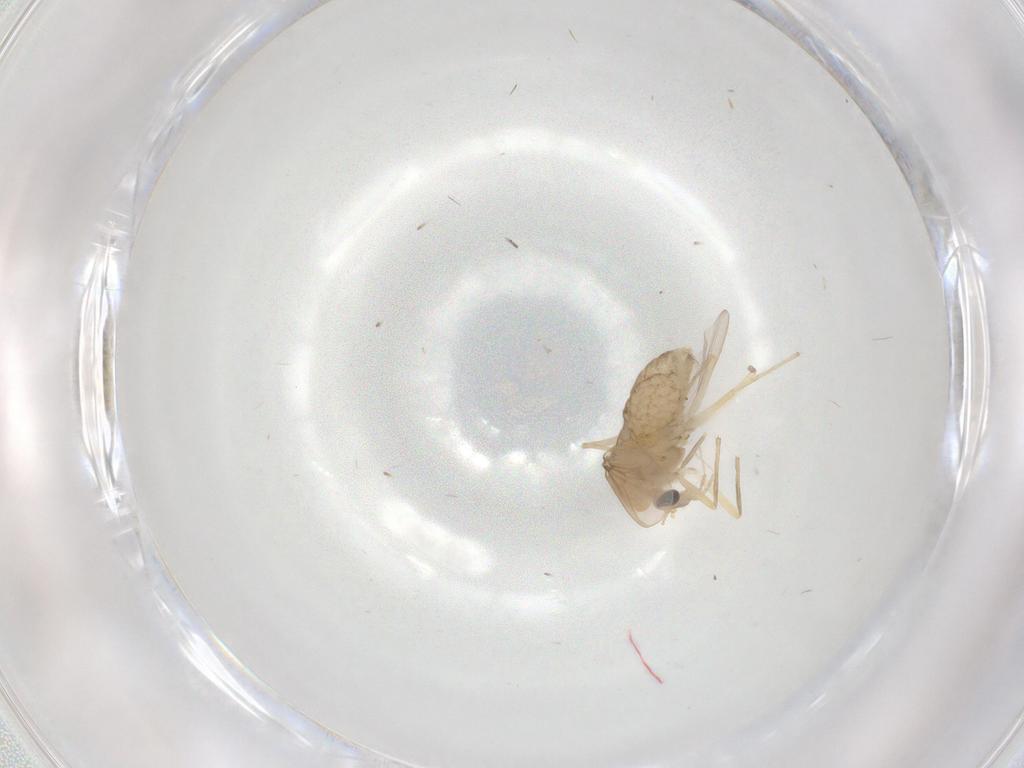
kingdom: Animalia
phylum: Arthropoda
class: Insecta
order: Diptera
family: Chironomidae
